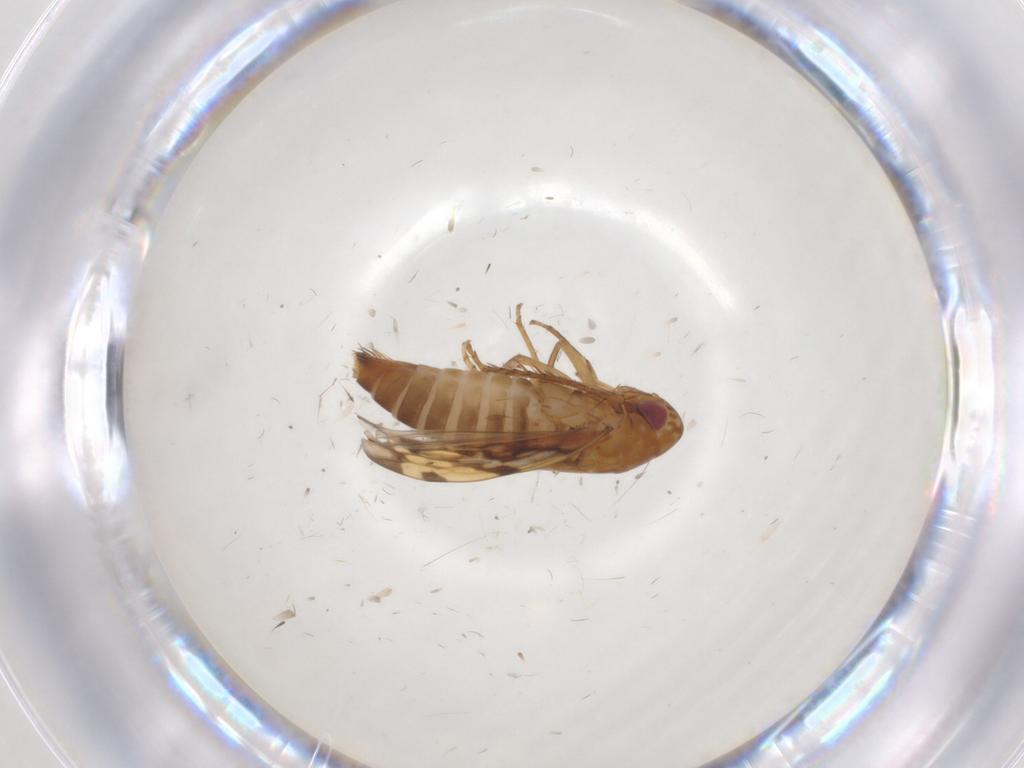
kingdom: Animalia
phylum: Arthropoda
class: Insecta
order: Hemiptera
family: Cicadellidae
